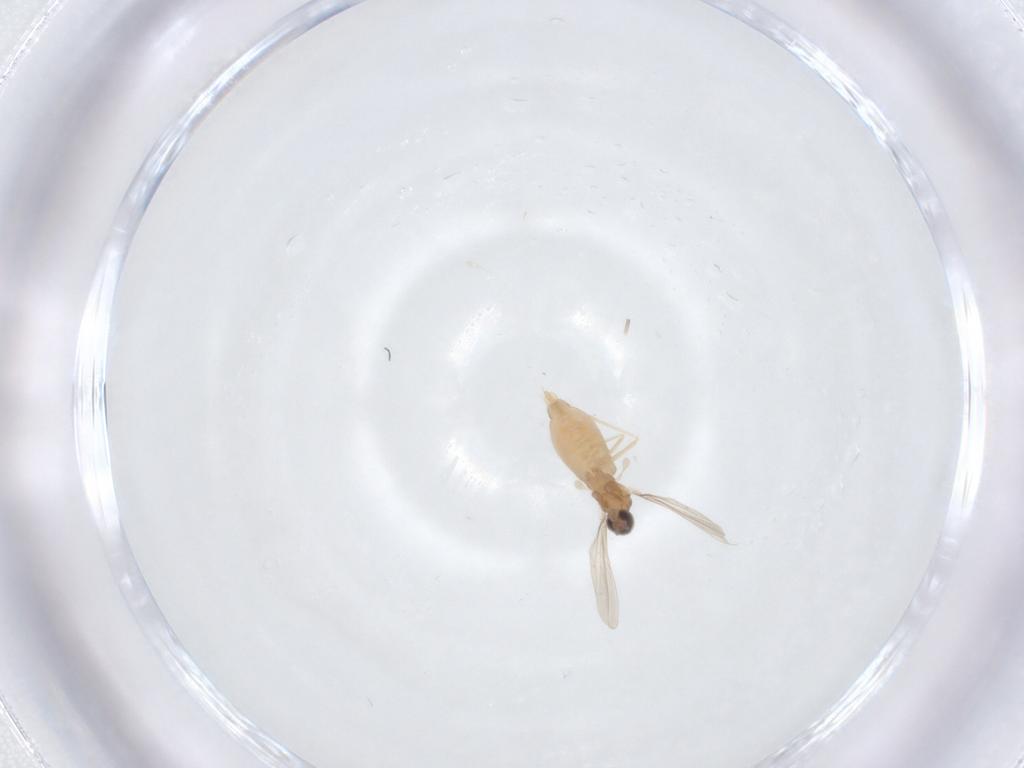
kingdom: Animalia
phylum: Arthropoda
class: Insecta
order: Diptera
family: Cecidomyiidae
